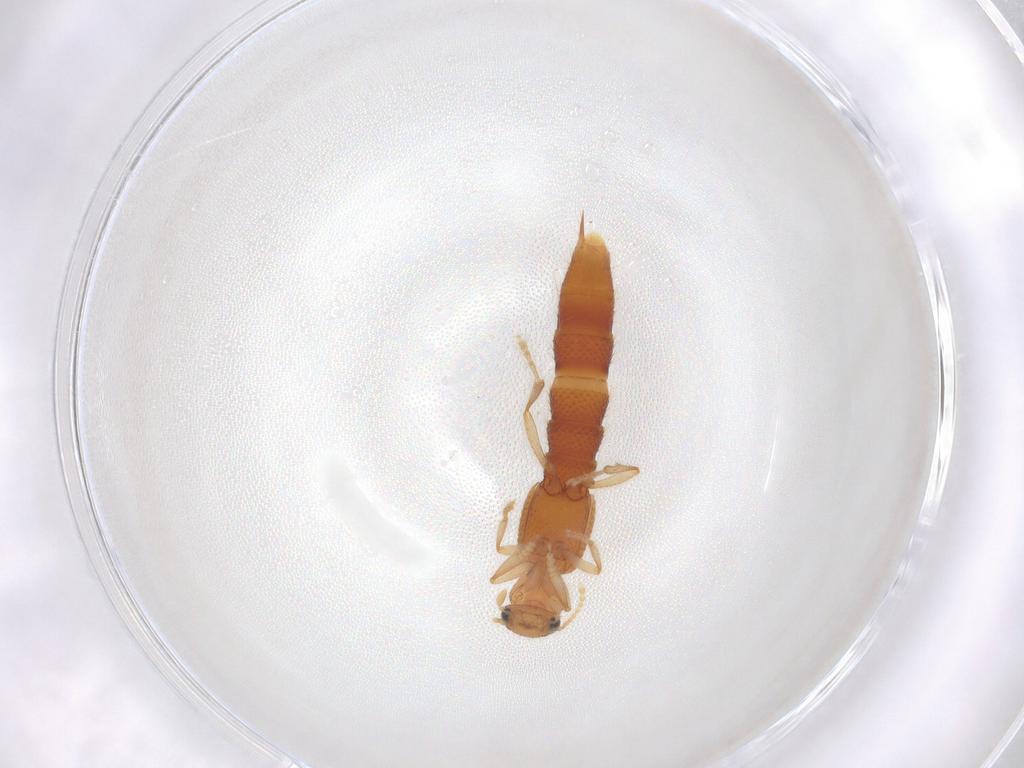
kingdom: Animalia
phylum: Arthropoda
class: Insecta
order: Coleoptera
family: Staphylinidae
